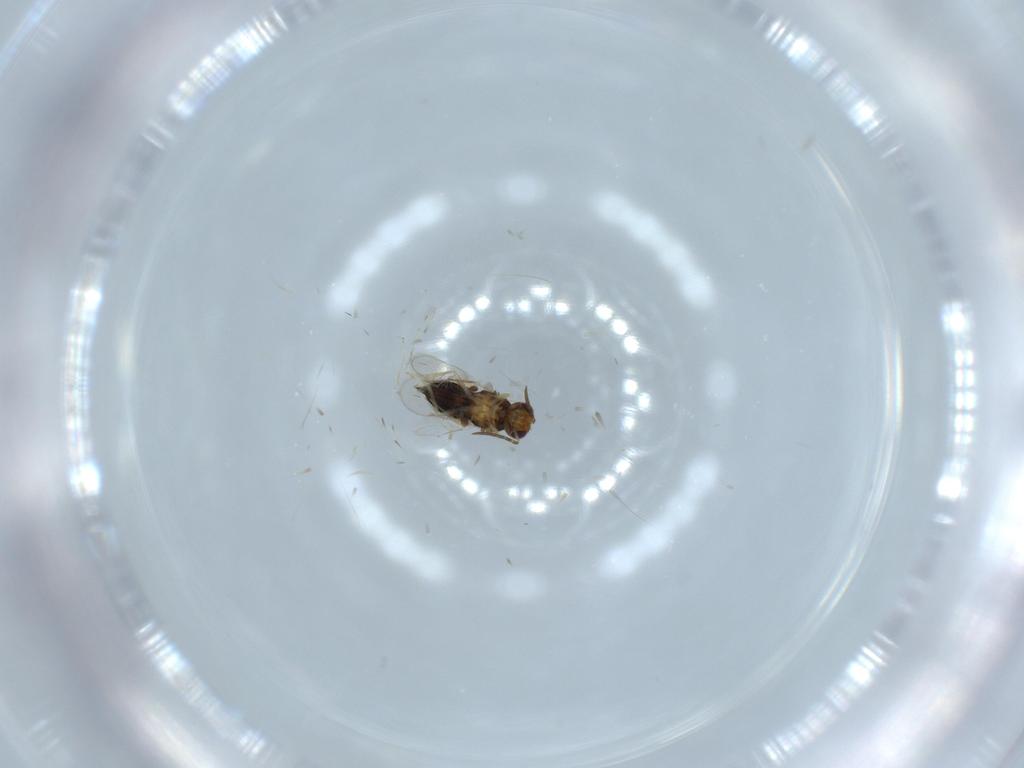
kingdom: Animalia
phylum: Arthropoda
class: Insecta
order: Hymenoptera
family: Aphelinidae
